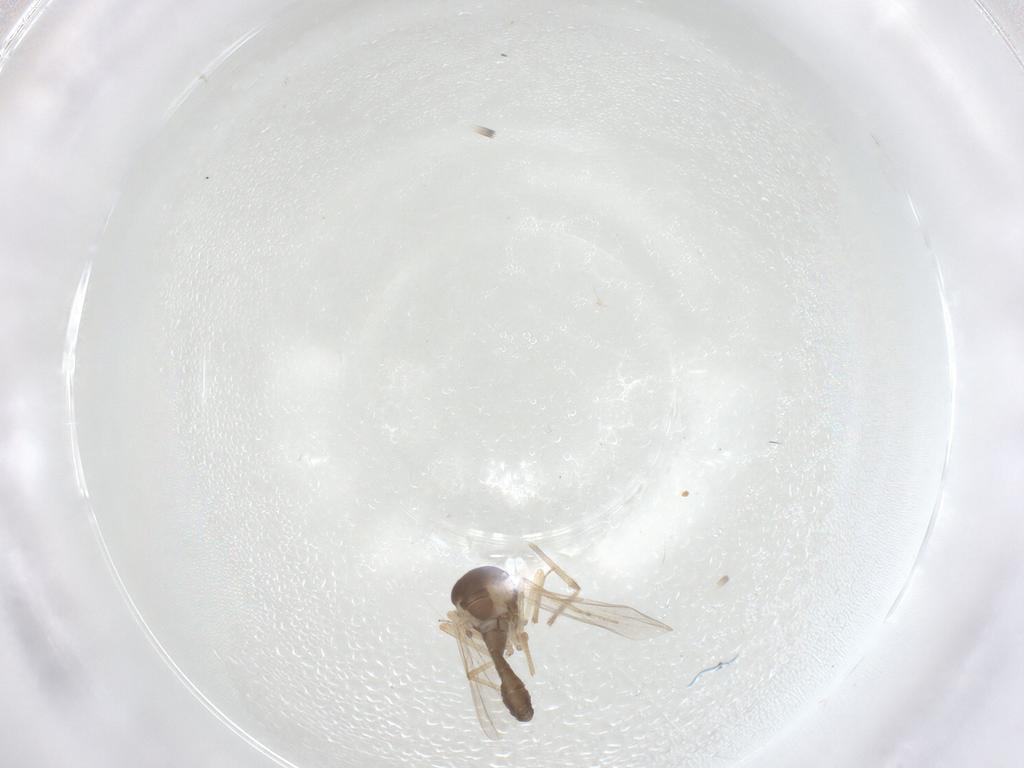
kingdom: Animalia
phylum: Arthropoda
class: Insecta
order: Diptera
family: Ceratopogonidae
